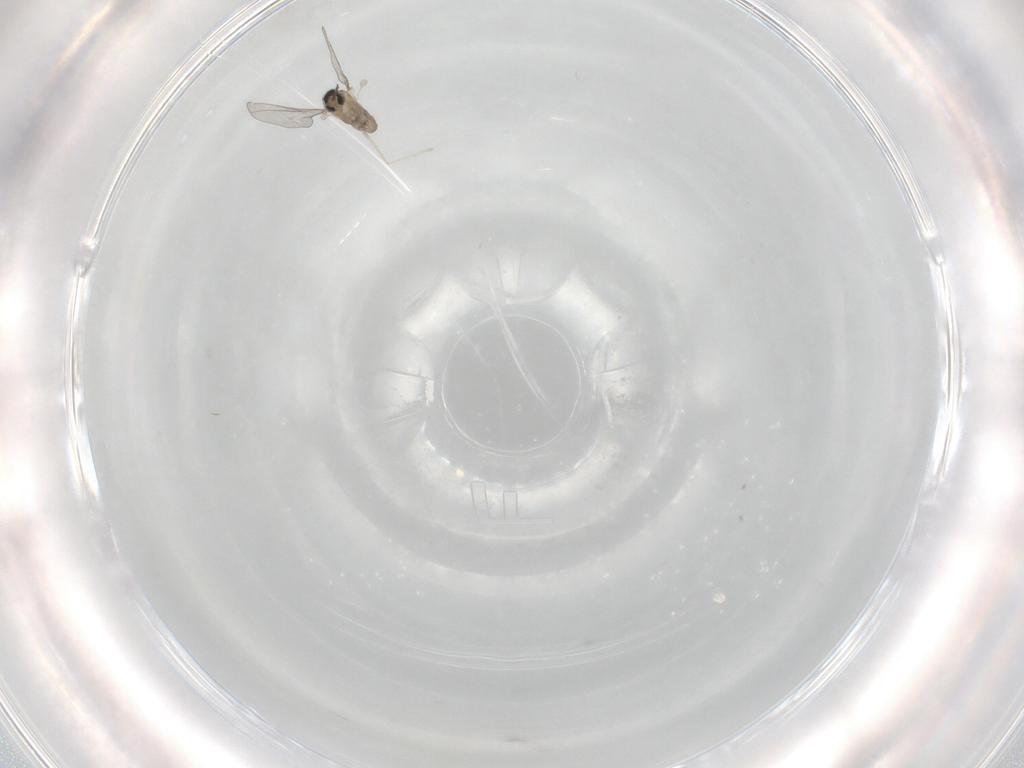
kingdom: Animalia
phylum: Arthropoda
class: Insecta
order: Diptera
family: Cecidomyiidae
